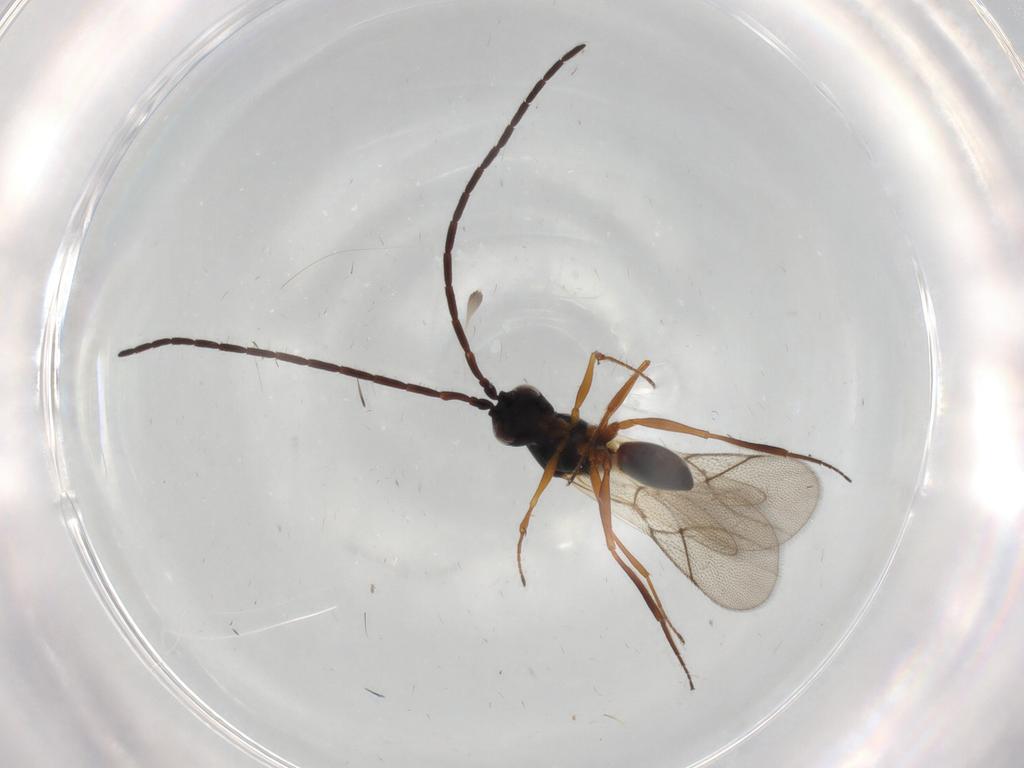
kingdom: Animalia
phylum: Arthropoda
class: Insecta
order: Hymenoptera
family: Figitidae
